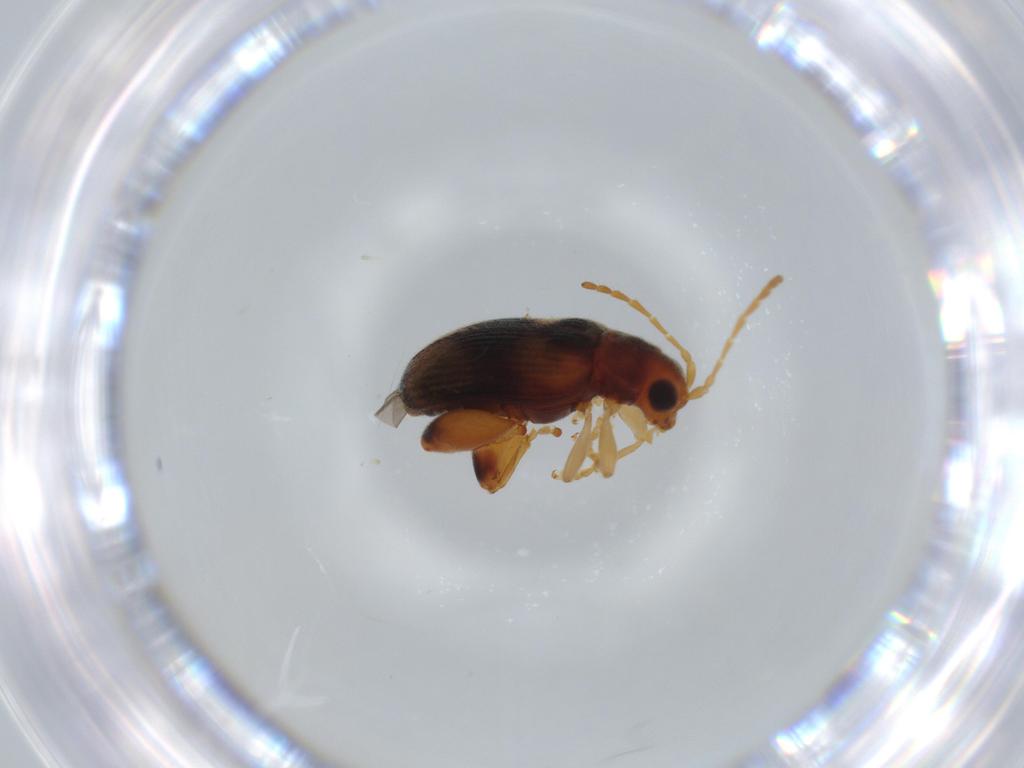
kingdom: Animalia
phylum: Arthropoda
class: Insecta
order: Coleoptera
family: Chrysomelidae
